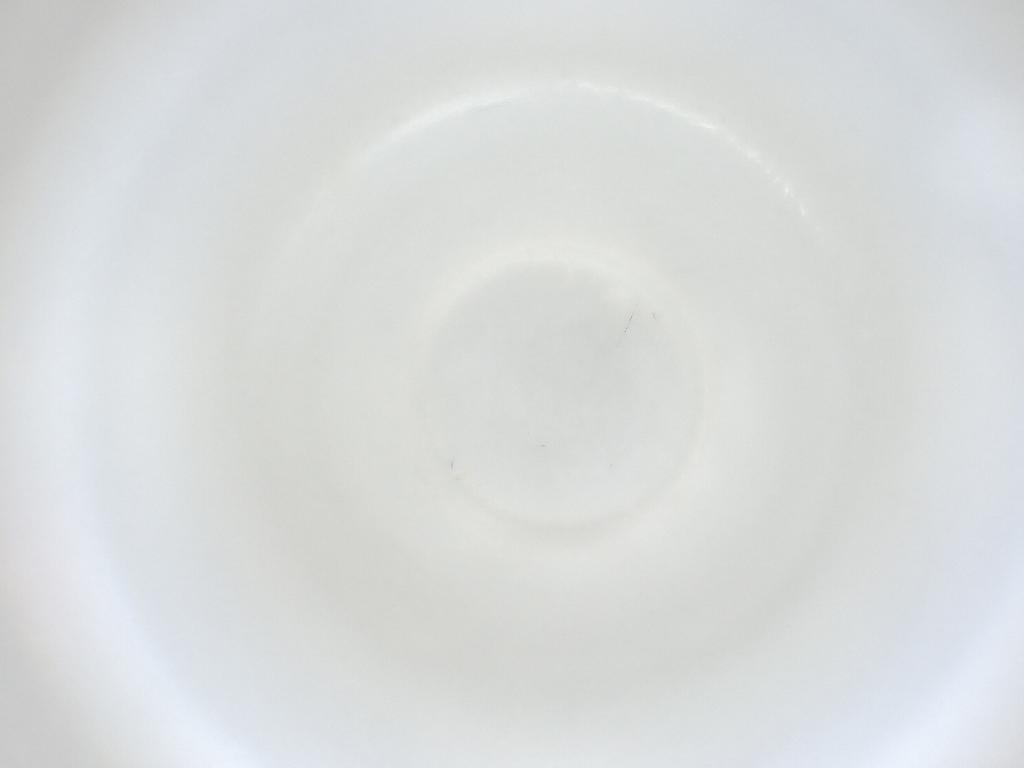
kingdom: Animalia
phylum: Arthropoda
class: Insecta
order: Diptera
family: Cecidomyiidae
